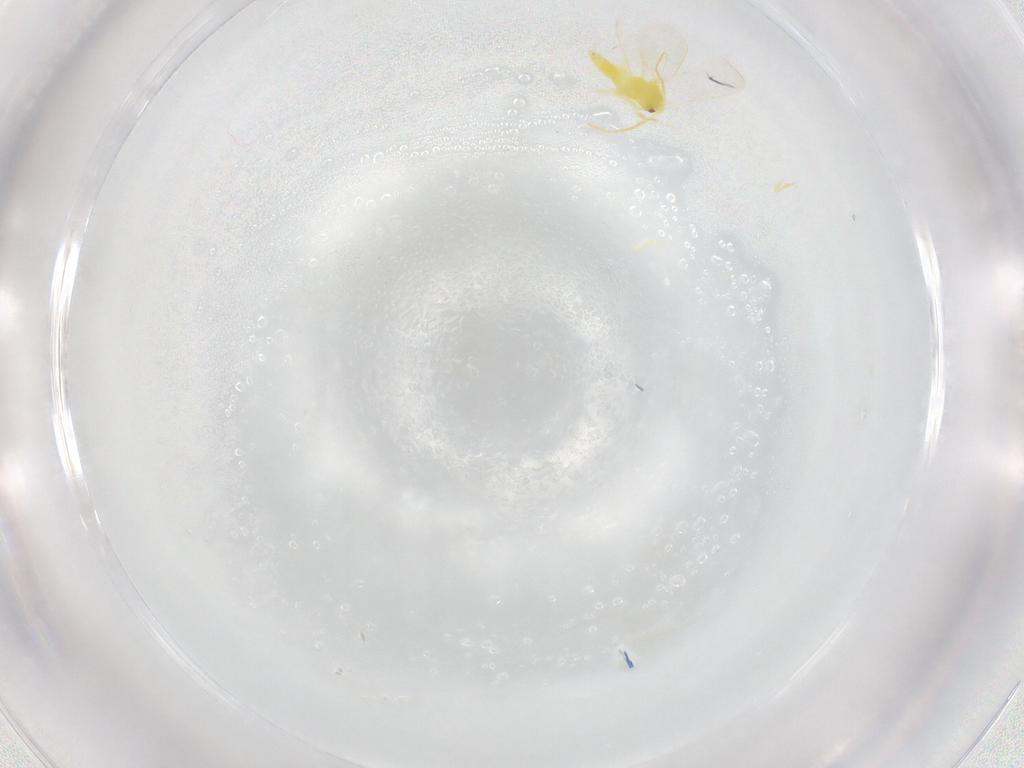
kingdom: Animalia
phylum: Arthropoda
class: Insecta
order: Hemiptera
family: Aleyrodidae
